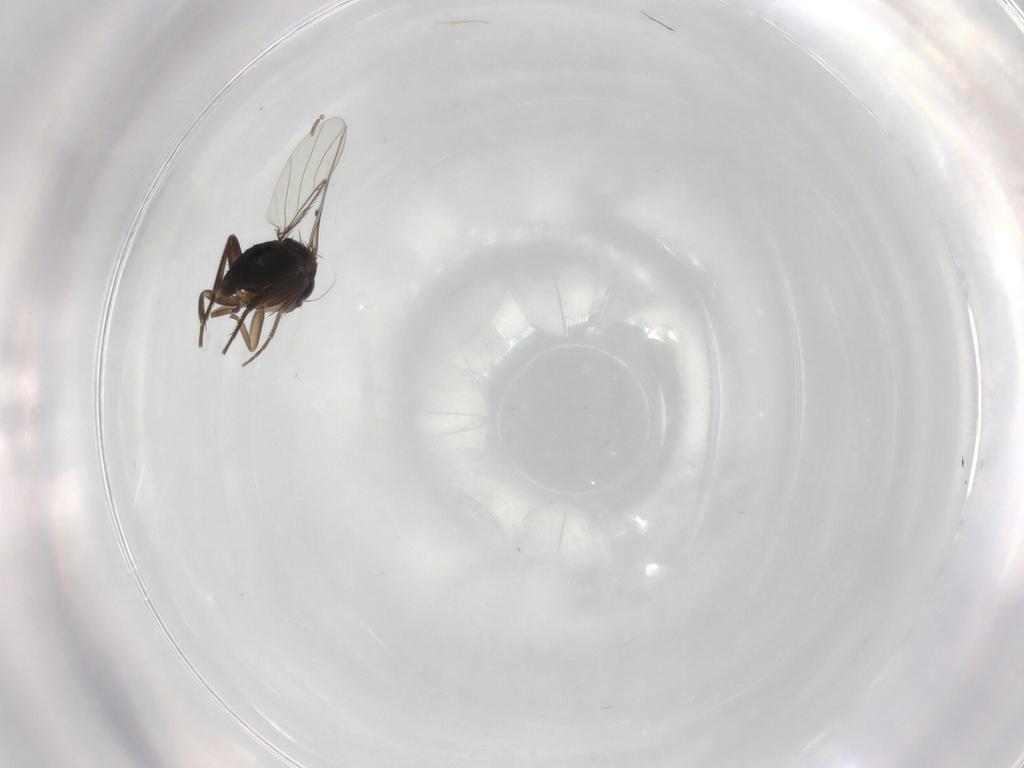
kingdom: Animalia
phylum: Arthropoda
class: Insecta
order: Diptera
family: Phoridae
